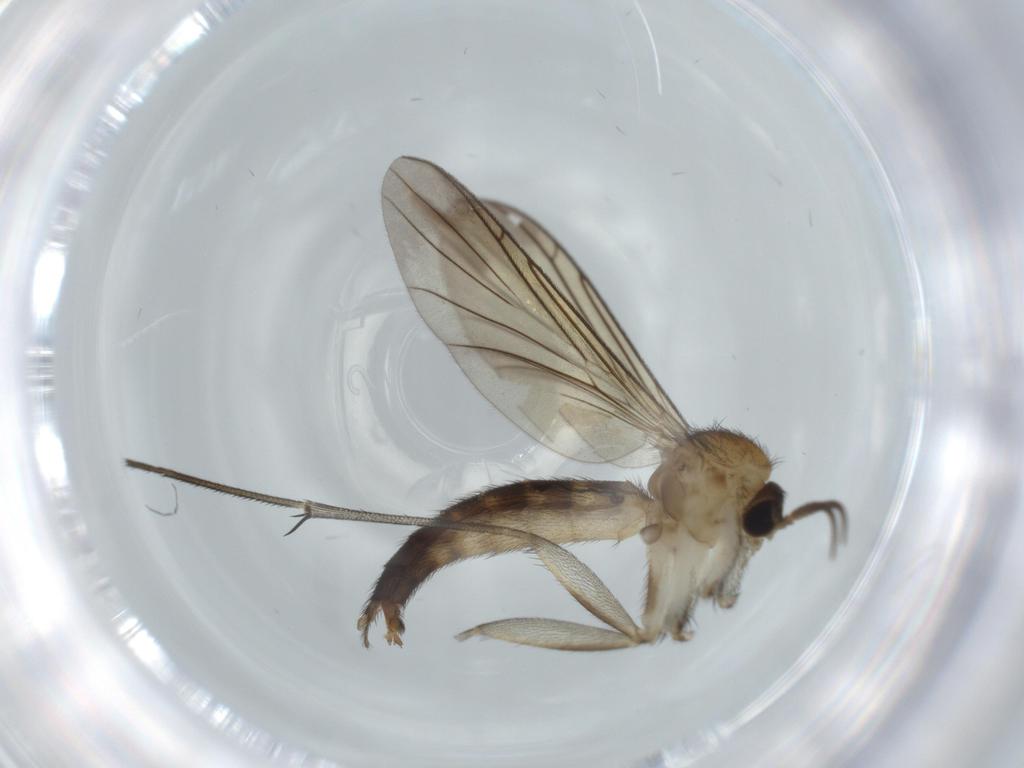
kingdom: Animalia
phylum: Arthropoda
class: Insecta
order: Diptera
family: Keroplatidae
